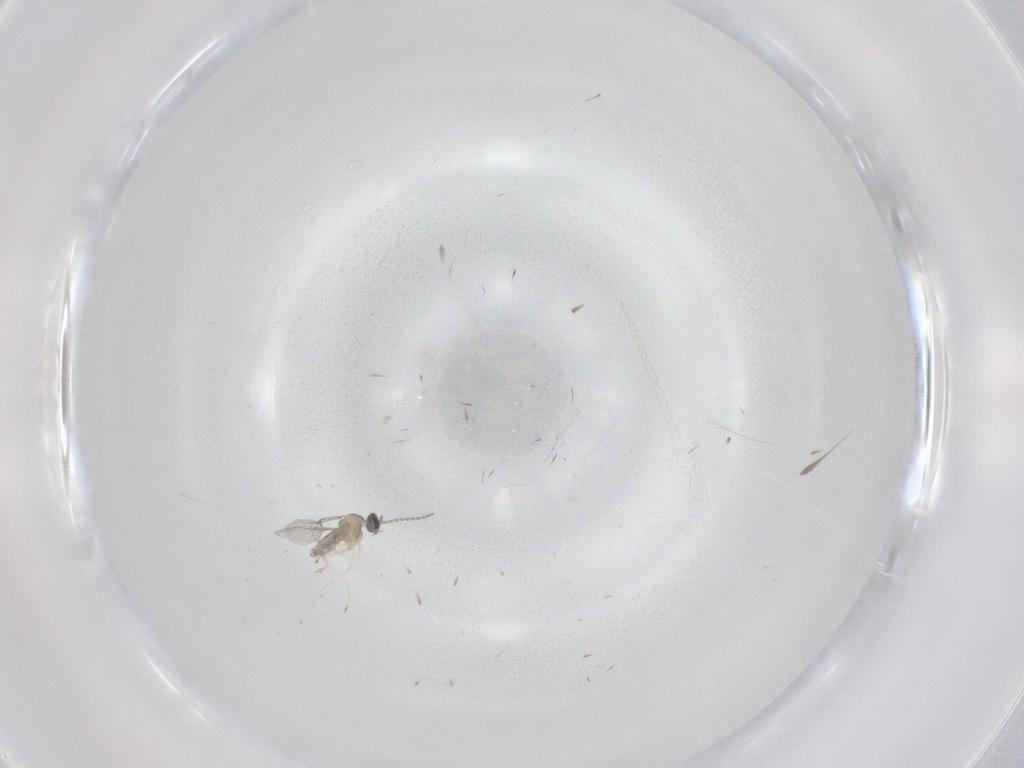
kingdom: Animalia
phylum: Arthropoda
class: Insecta
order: Diptera
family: Cecidomyiidae
